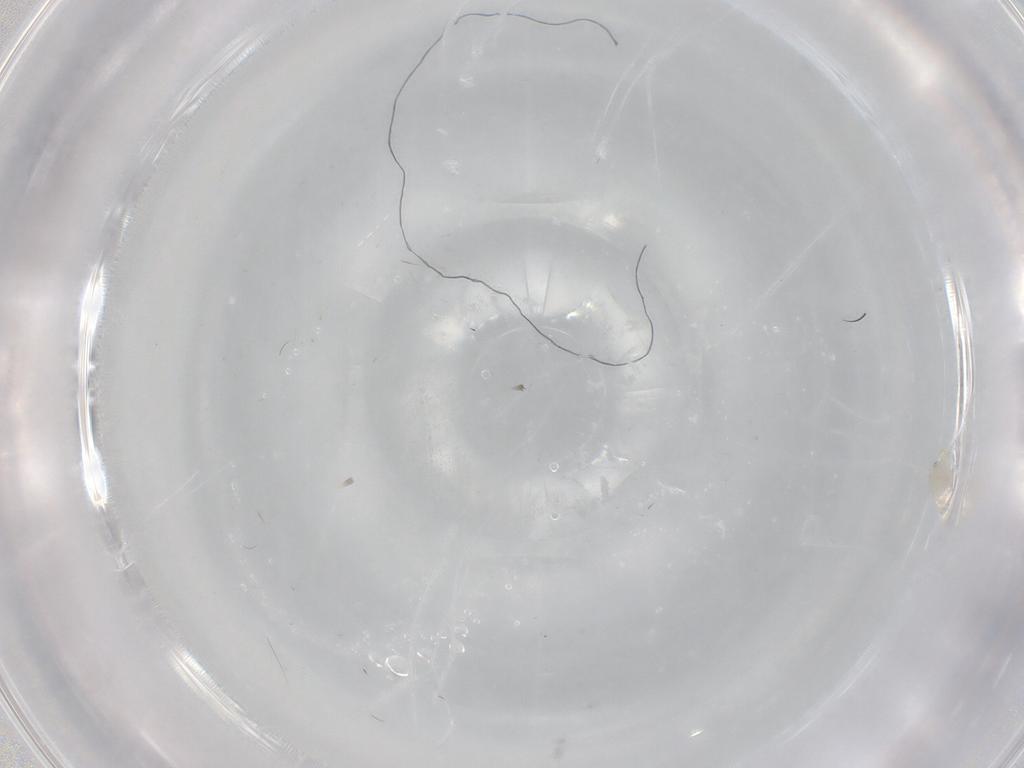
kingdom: Animalia
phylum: Arthropoda
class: Insecta
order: Diptera
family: Cecidomyiidae
